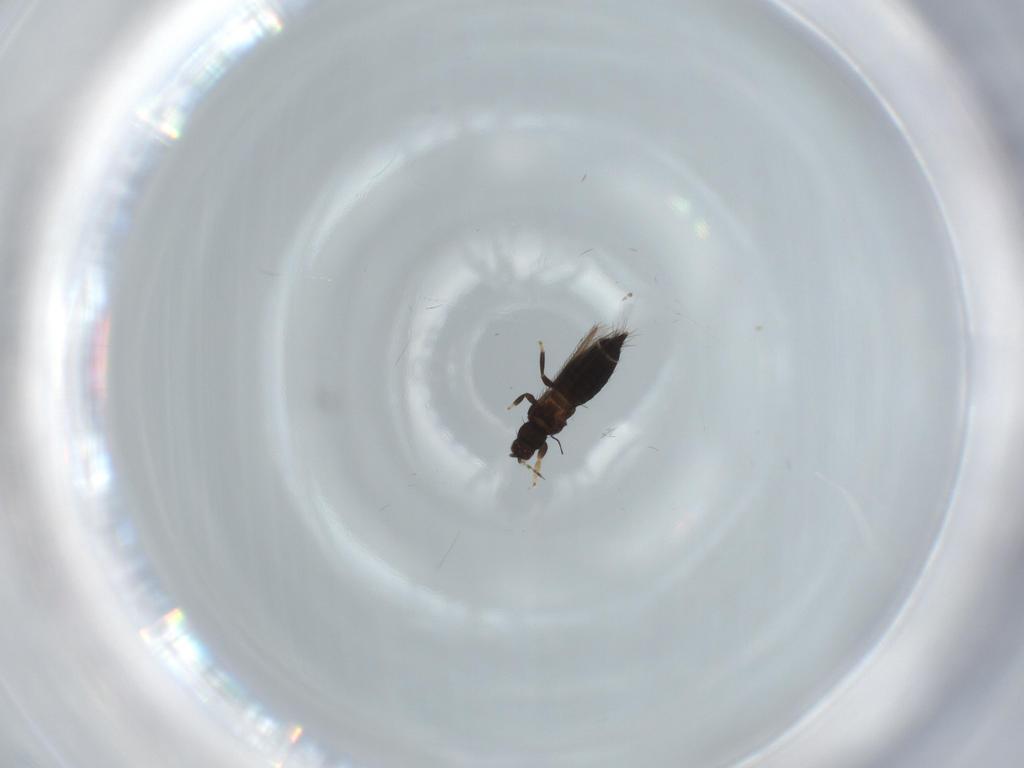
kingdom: Animalia
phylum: Arthropoda
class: Insecta
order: Thysanoptera
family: Thripidae
